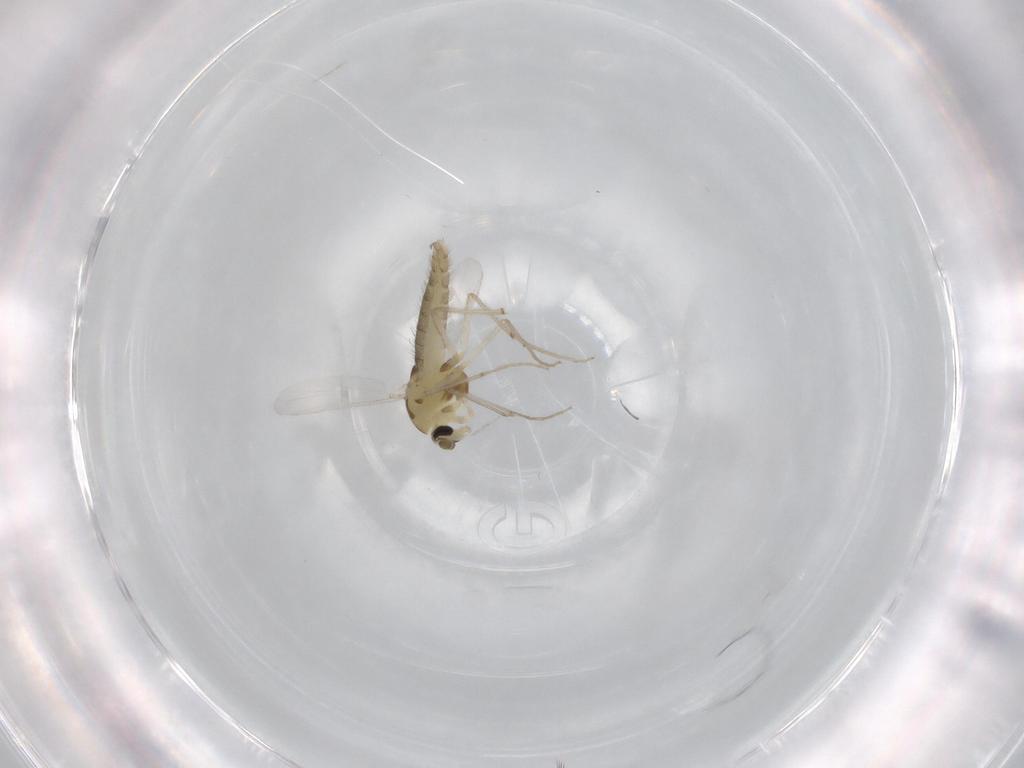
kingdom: Animalia
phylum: Arthropoda
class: Insecta
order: Diptera
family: Chironomidae
